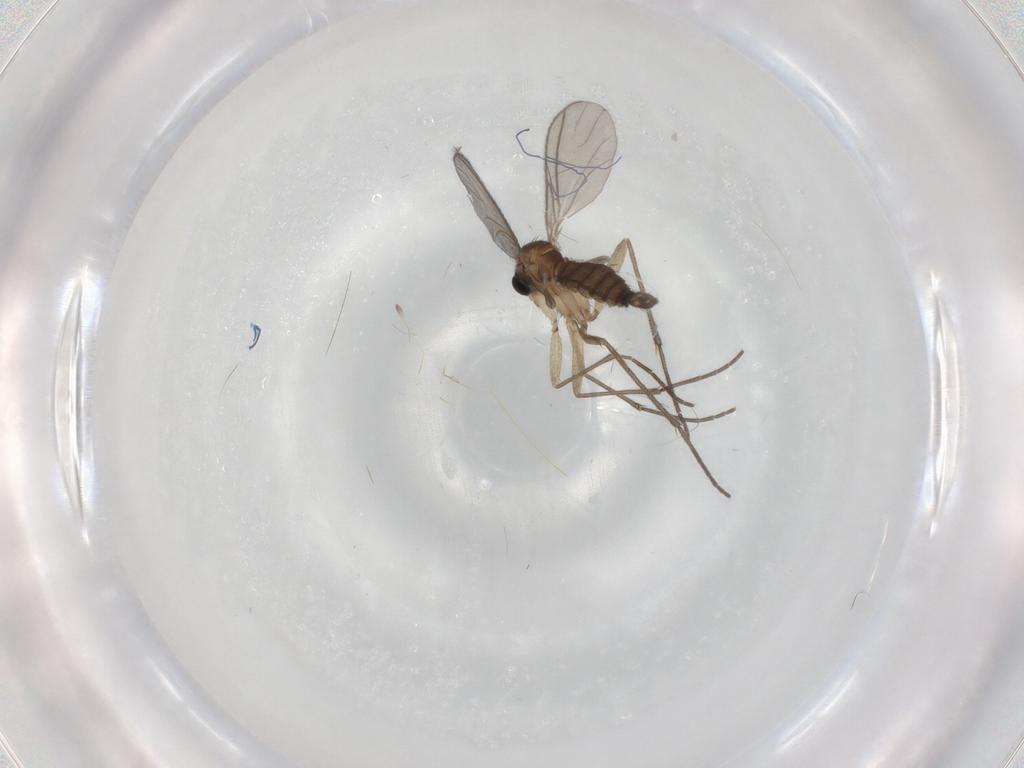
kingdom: Animalia
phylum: Arthropoda
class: Insecta
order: Diptera
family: Sciaridae
